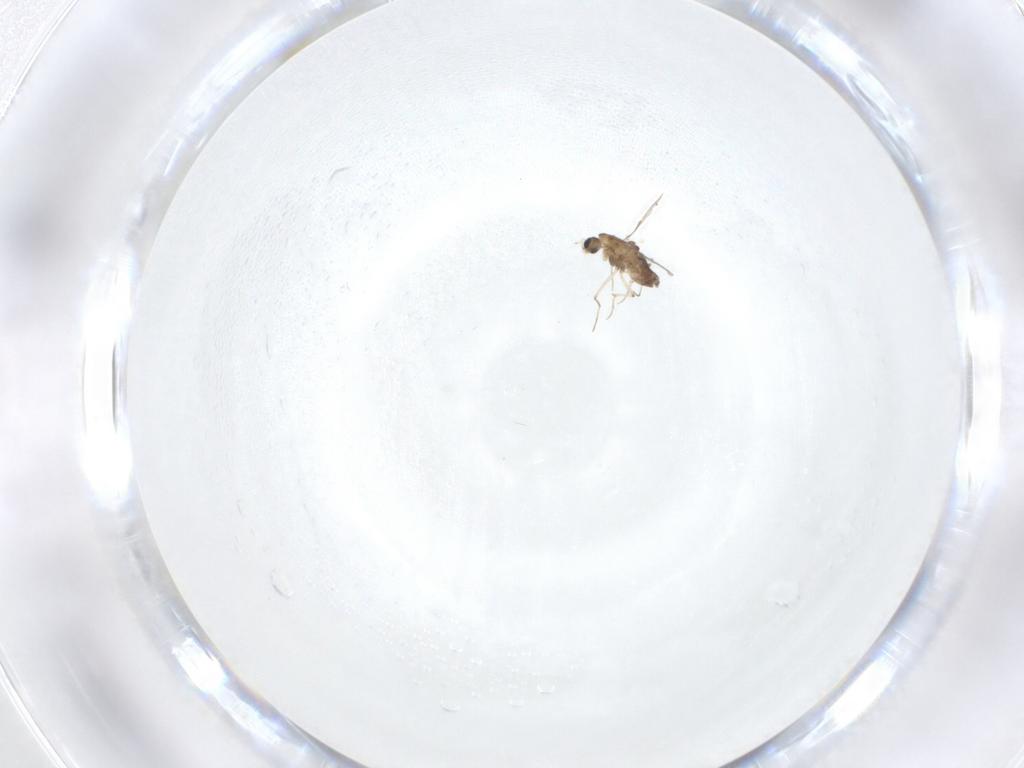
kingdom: Animalia
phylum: Arthropoda
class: Insecta
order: Diptera
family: Chironomidae
